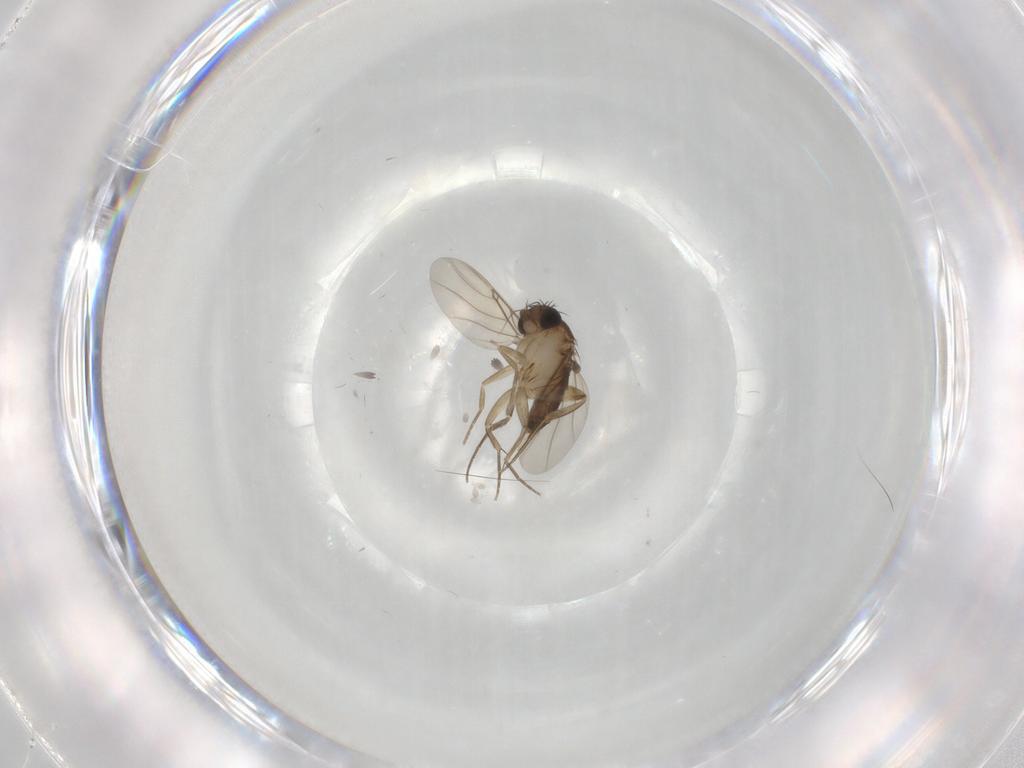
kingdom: Animalia
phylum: Arthropoda
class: Insecta
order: Diptera
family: Phoridae
